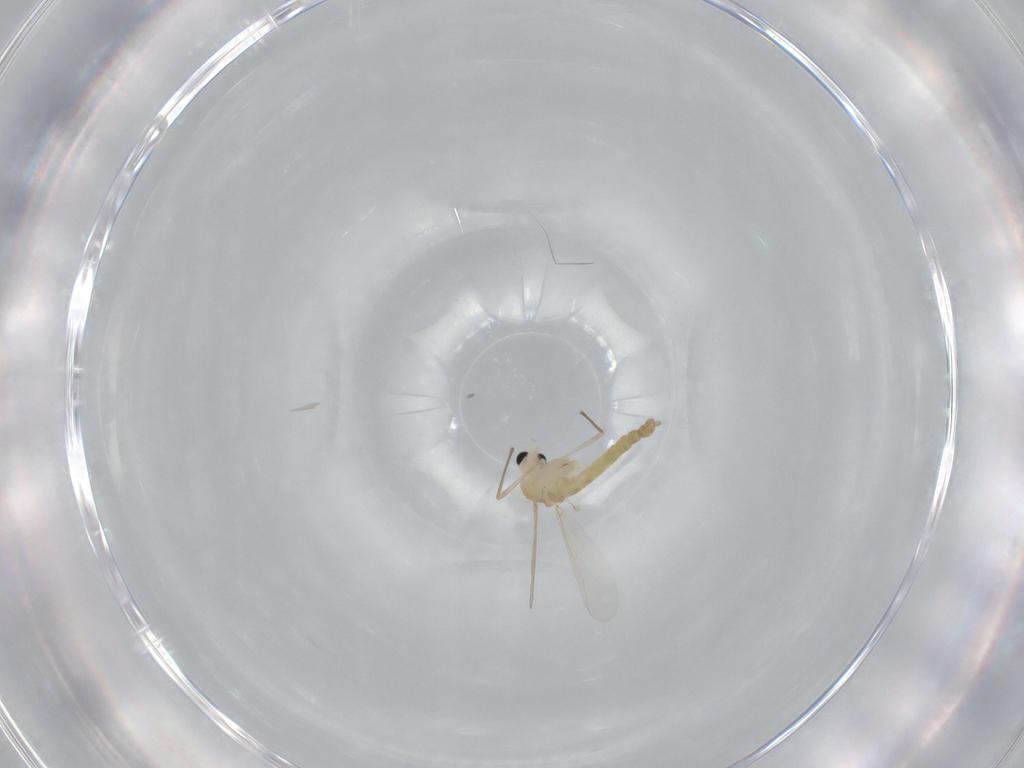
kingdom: Animalia
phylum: Arthropoda
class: Insecta
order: Diptera
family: Chironomidae
